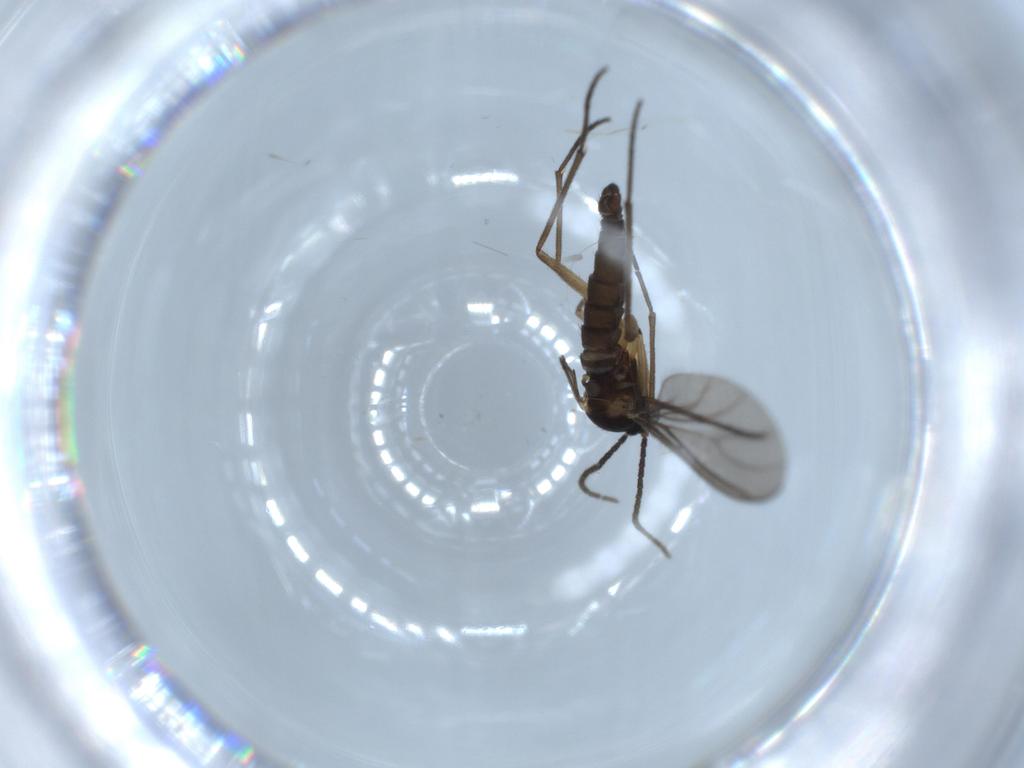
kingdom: Animalia
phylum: Arthropoda
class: Insecta
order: Diptera
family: Sciaridae
